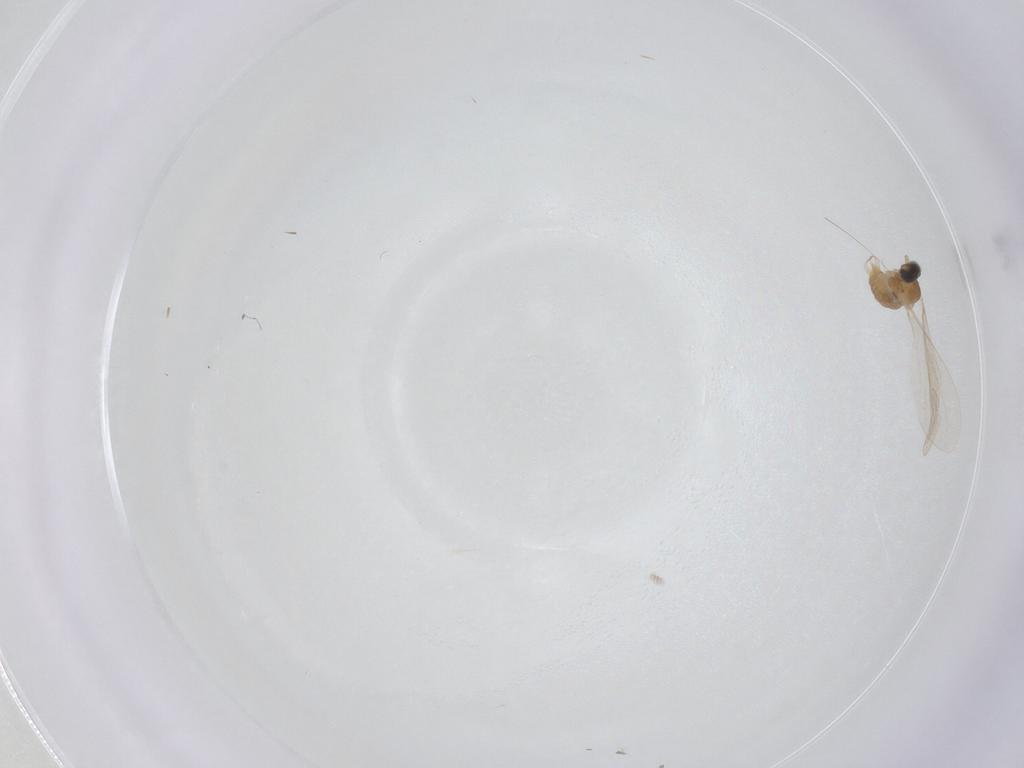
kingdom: Animalia
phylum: Arthropoda
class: Insecta
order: Diptera
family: Cecidomyiidae
